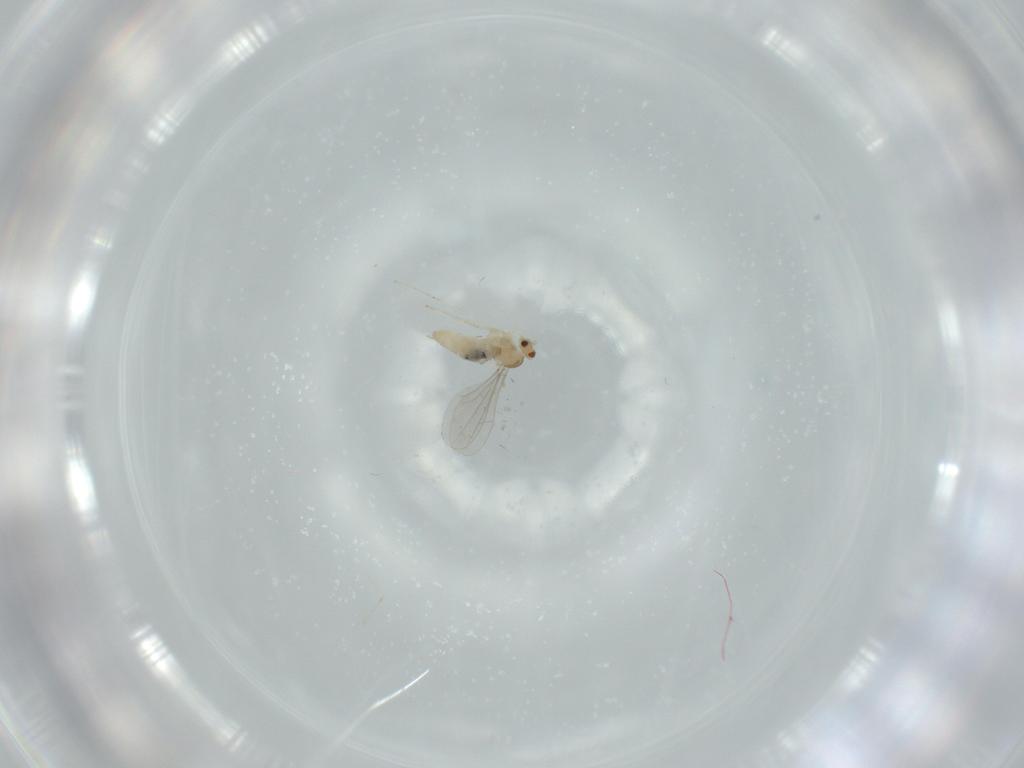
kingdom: Animalia
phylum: Arthropoda
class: Insecta
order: Diptera
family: Cecidomyiidae
